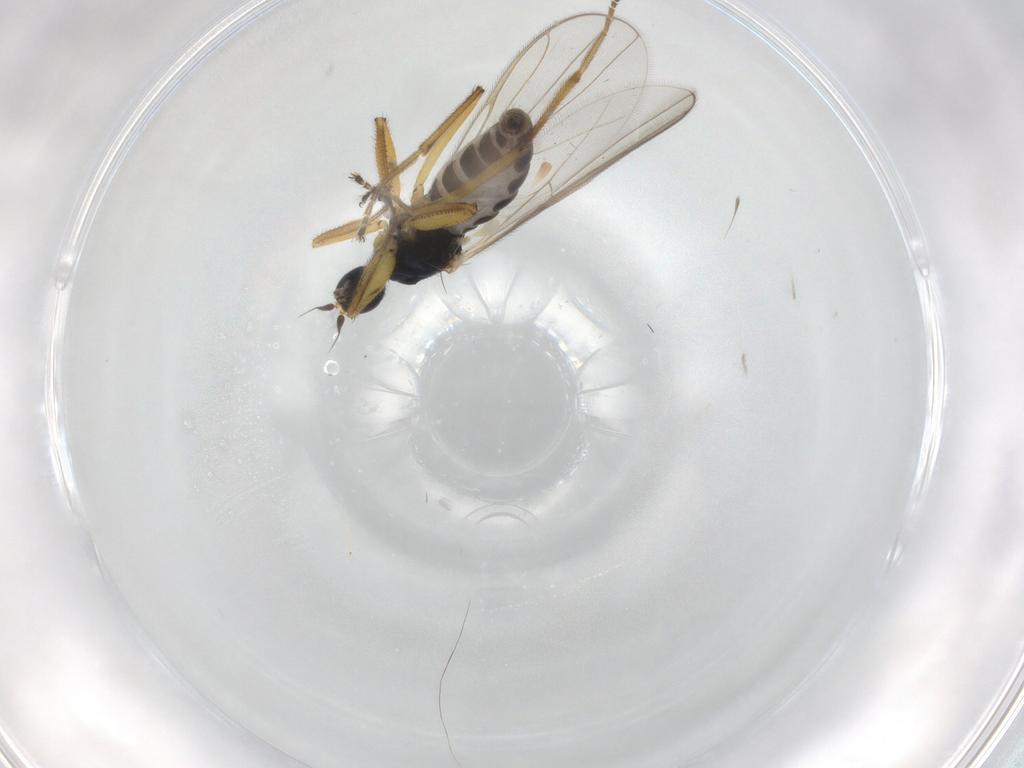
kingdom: Animalia
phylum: Arthropoda
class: Insecta
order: Diptera
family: Hybotidae
